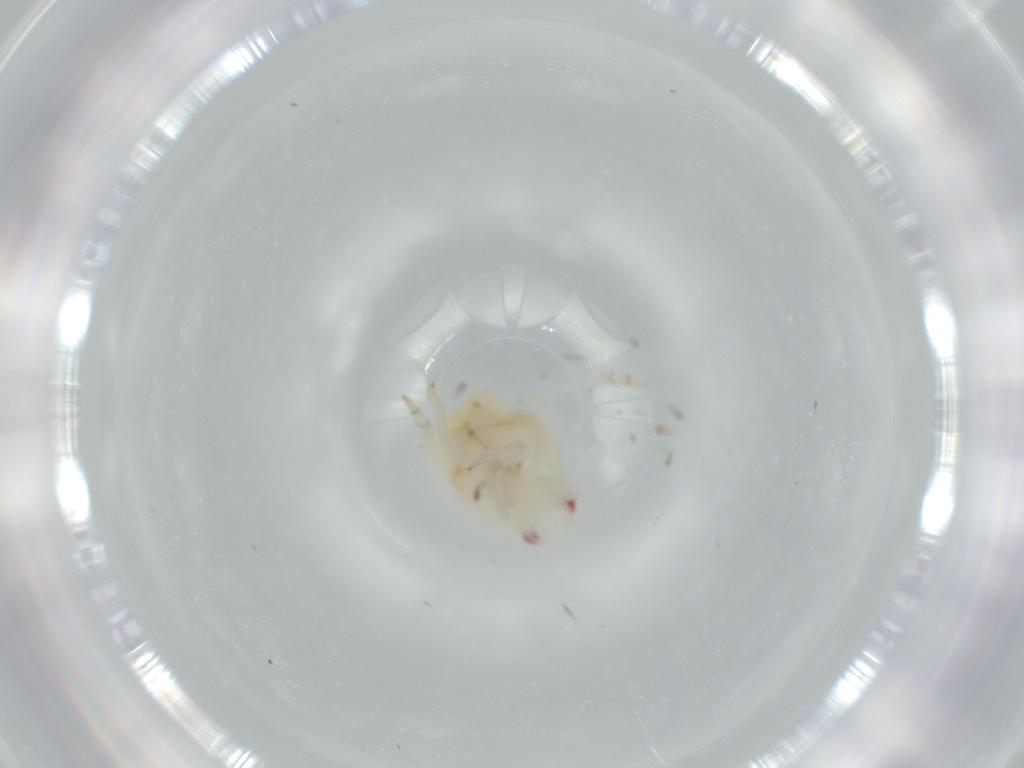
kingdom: Animalia
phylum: Arthropoda
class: Insecta
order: Hemiptera
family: Flatidae
